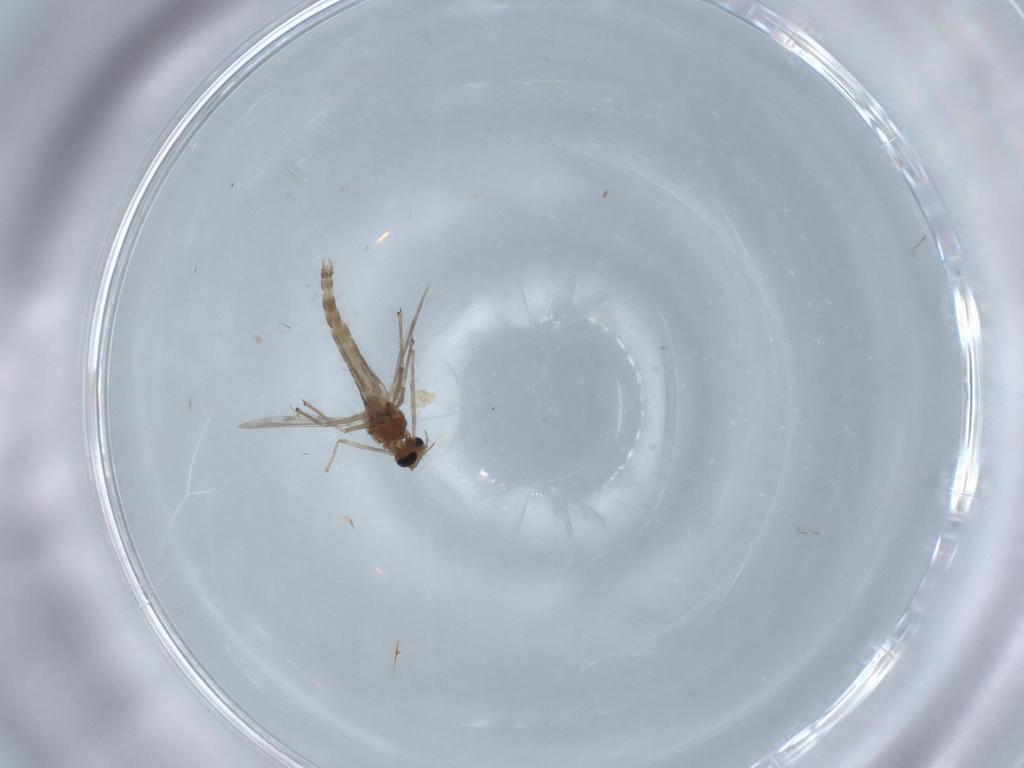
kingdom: Animalia
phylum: Arthropoda
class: Insecta
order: Diptera
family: Chironomidae
